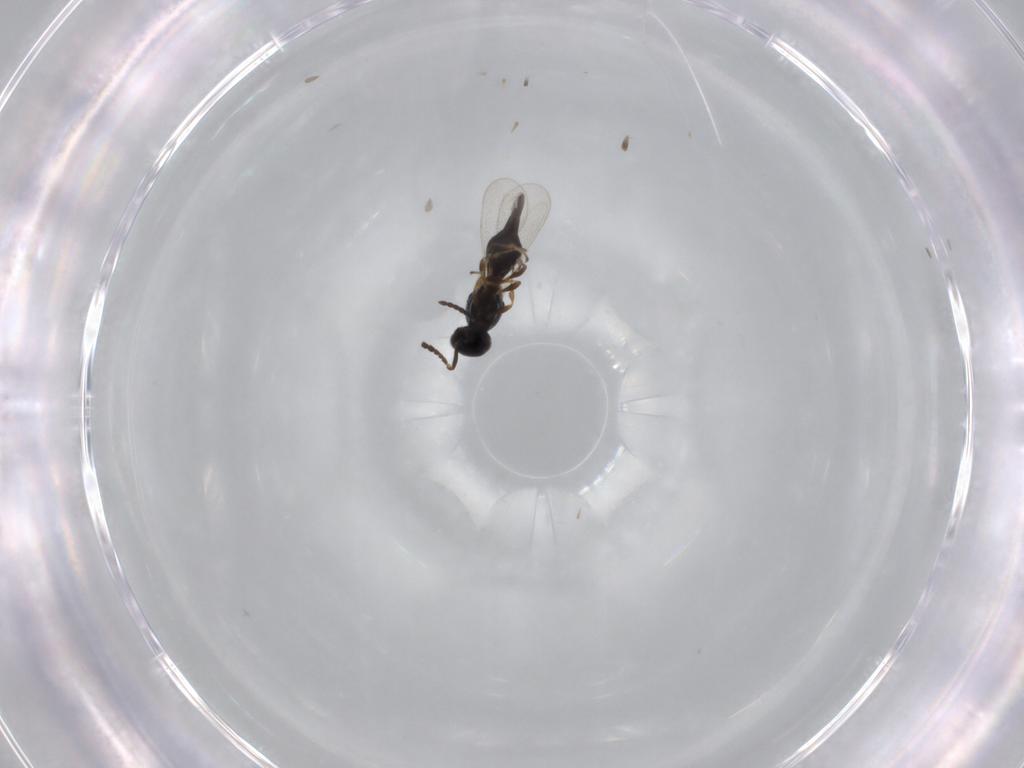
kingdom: Animalia
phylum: Arthropoda
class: Insecta
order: Hymenoptera
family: Platygastridae
